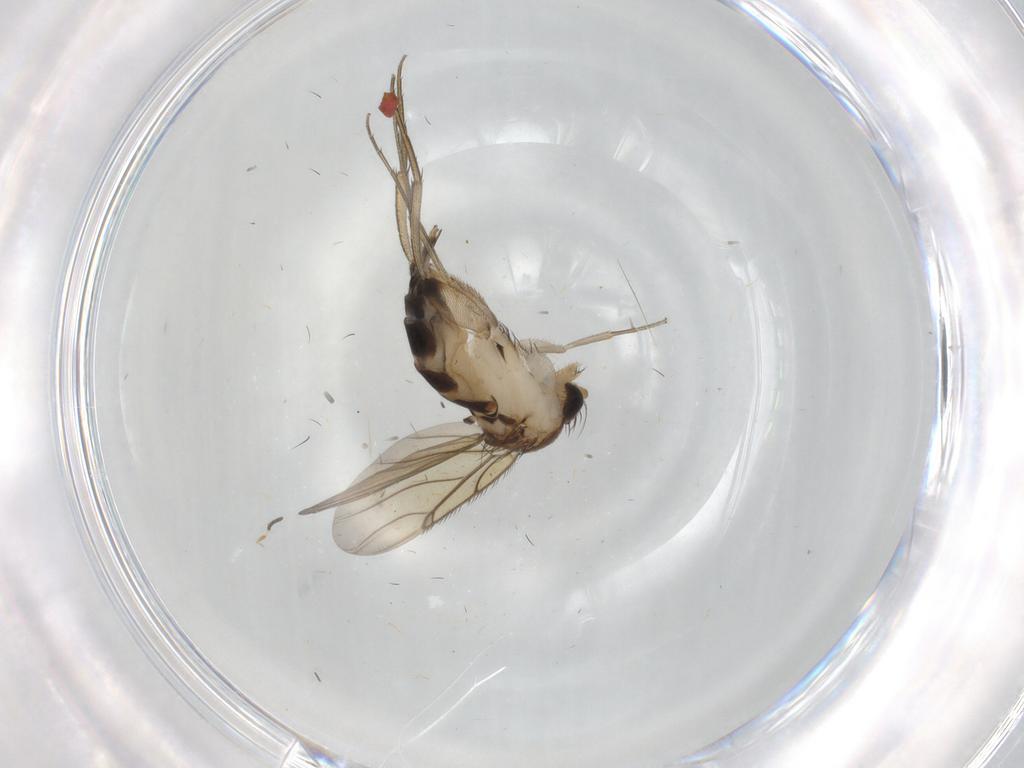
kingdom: Animalia
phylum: Arthropoda
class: Insecta
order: Diptera
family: Phoridae
